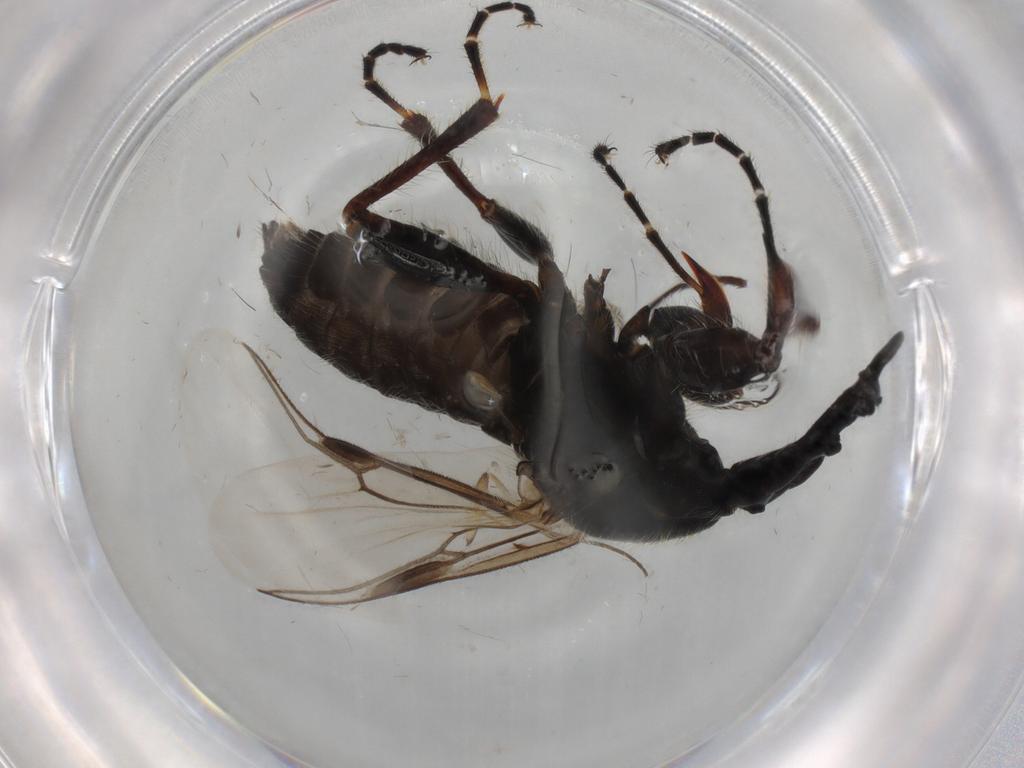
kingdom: Animalia
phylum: Arthropoda
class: Insecta
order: Diptera
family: Bibionidae
